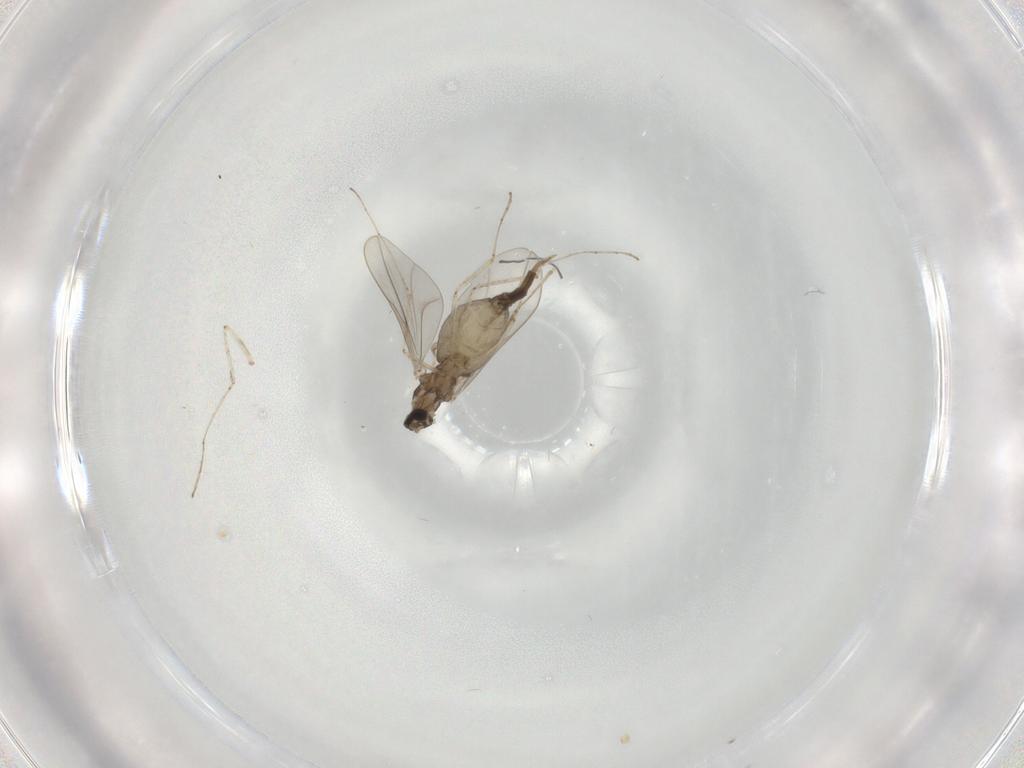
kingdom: Animalia
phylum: Arthropoda
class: Insecta
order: Diptera
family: Cecidomyiidae
